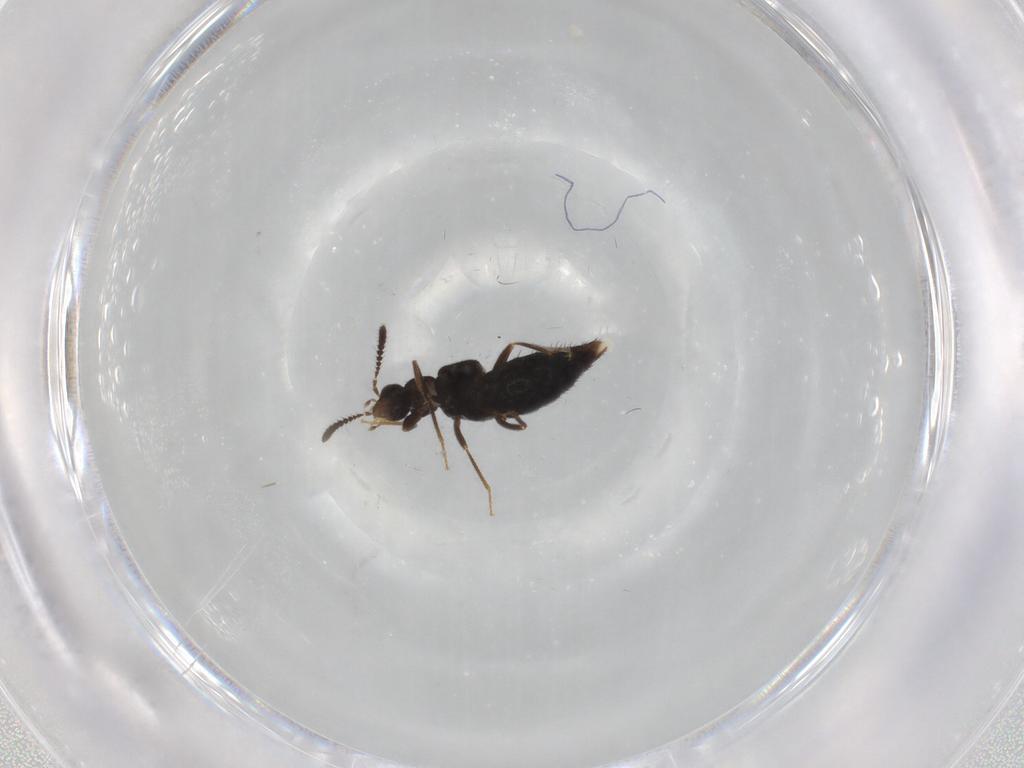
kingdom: Animalia
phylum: Arthropoda
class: Insecta
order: Coleoptera
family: Staphylinidae
